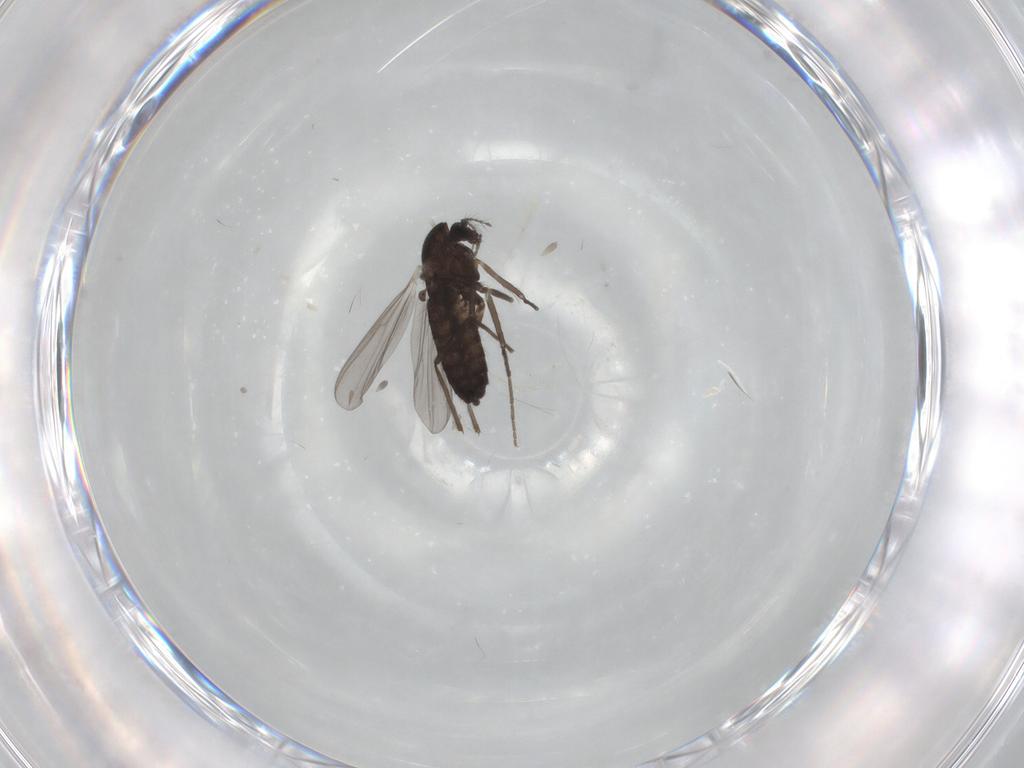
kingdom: Animalia
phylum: Arthropoda
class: Insecta
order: Diptera
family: Chironomidae
